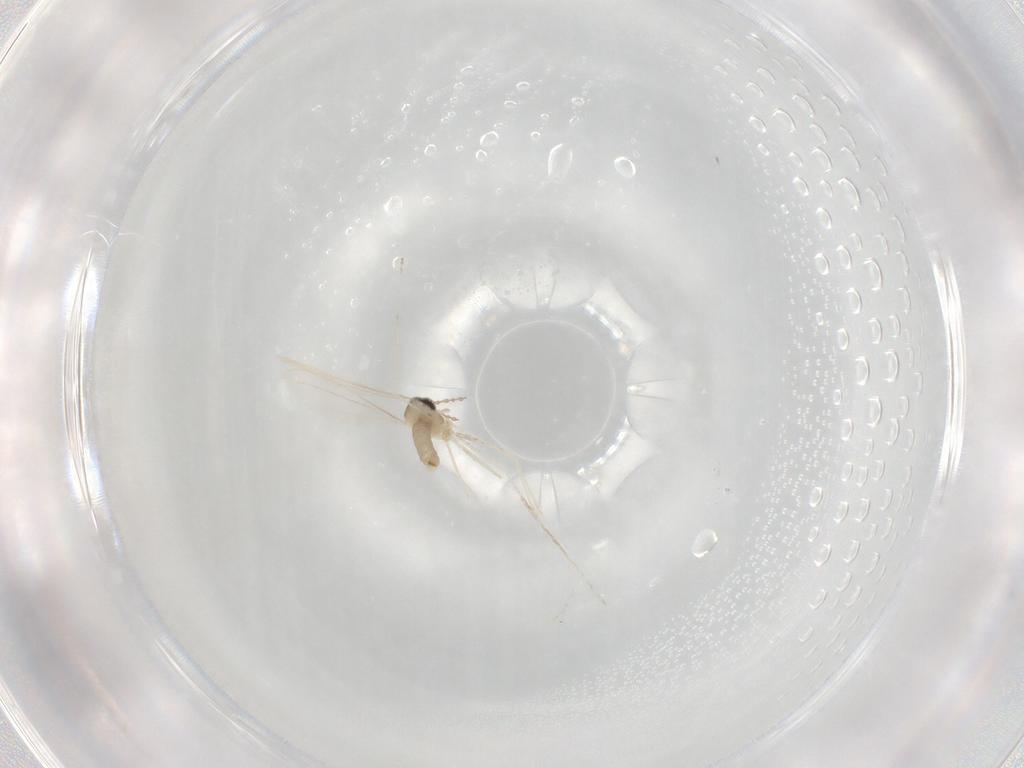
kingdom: Animalia
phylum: Arthropoda
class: Insecta
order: Diptera
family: Cecidomyiidae
